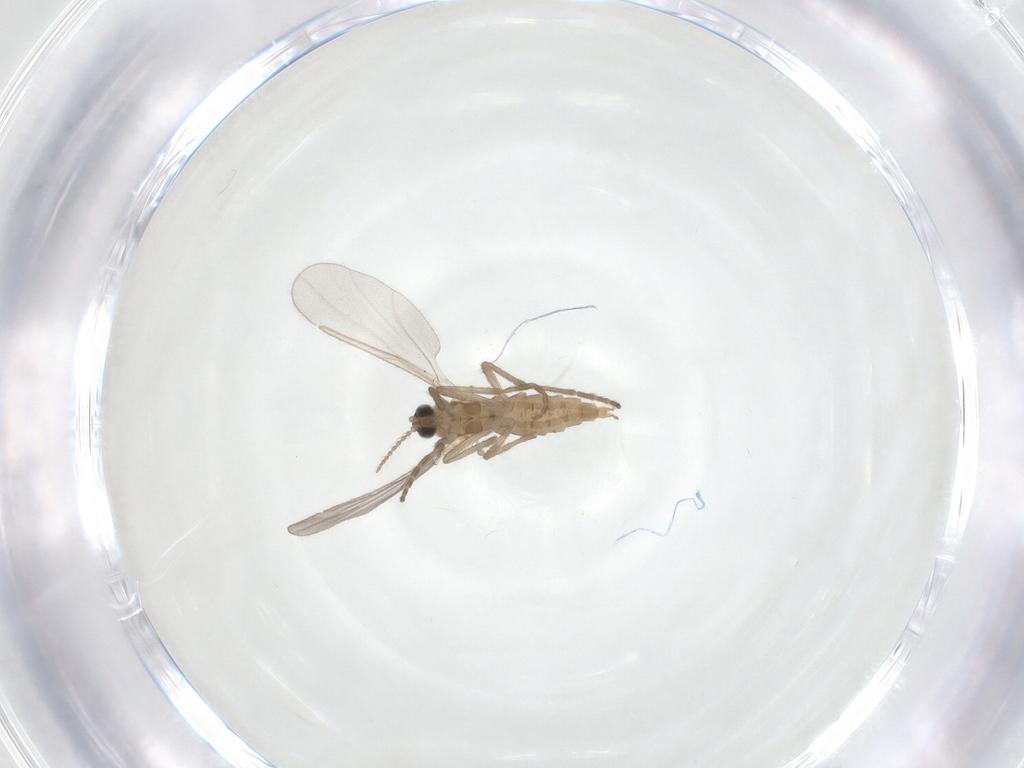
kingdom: Animalia
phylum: Arthropoda
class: Insecta
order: Diptera
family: Cecidomyiidae
